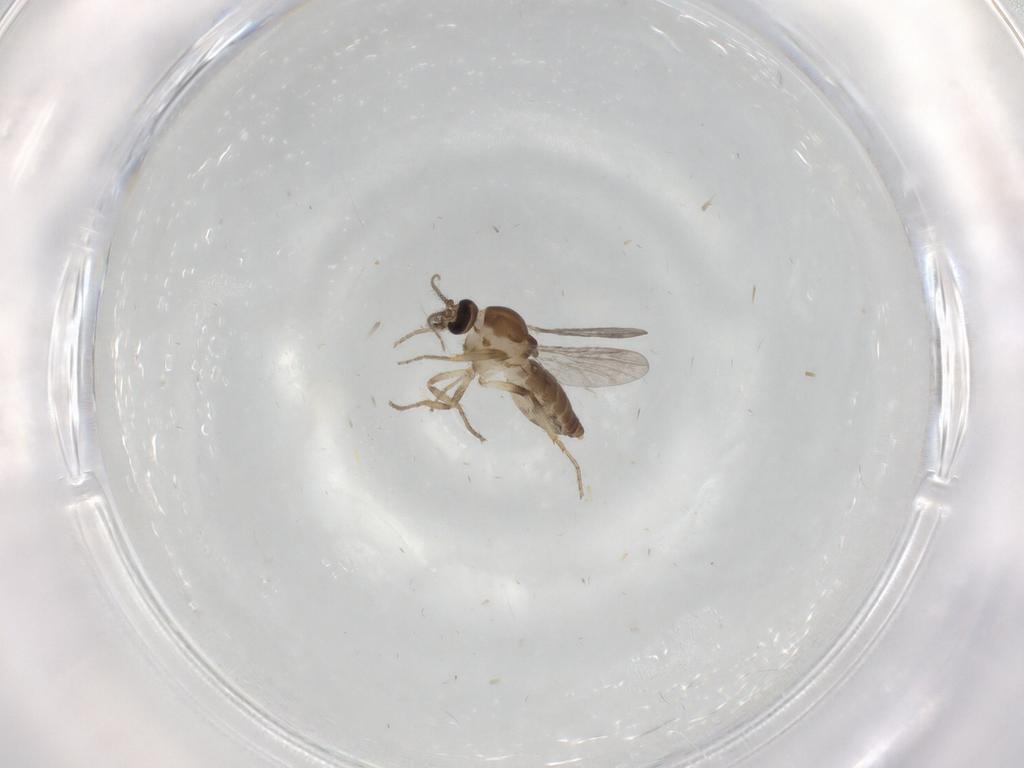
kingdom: Animalia
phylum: Arthropoda
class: Insecta
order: Diptera
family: Ceratopogonidae
